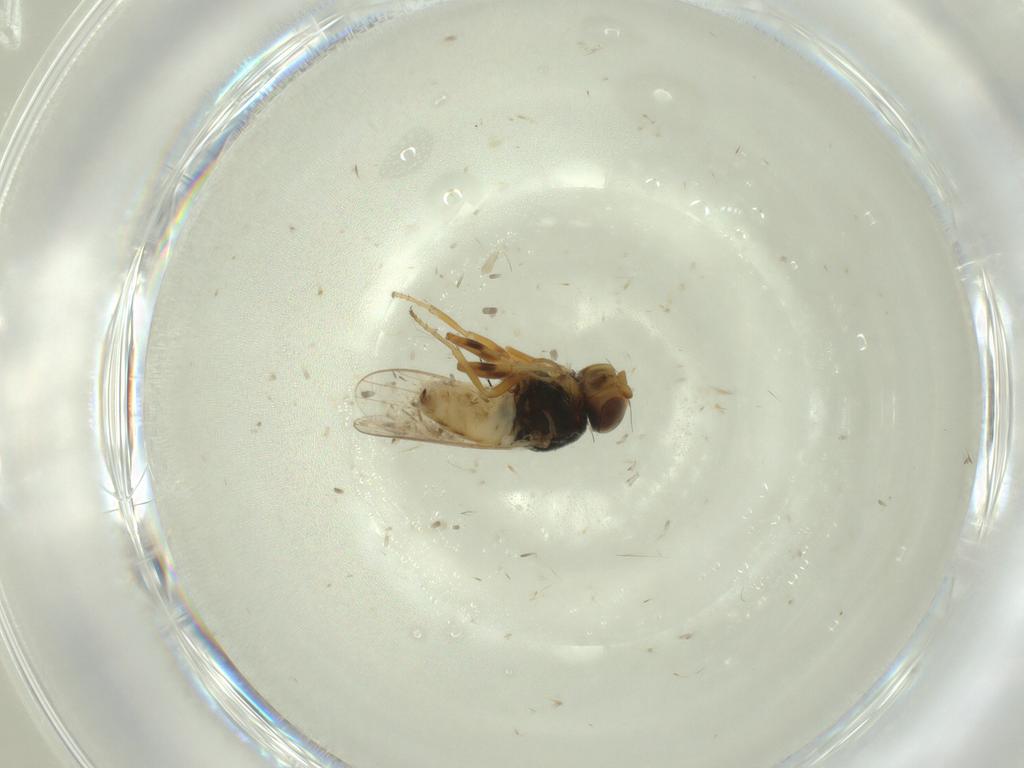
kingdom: Animalia
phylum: Arthropoda
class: Insecta
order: Diptera
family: Chloropidae
